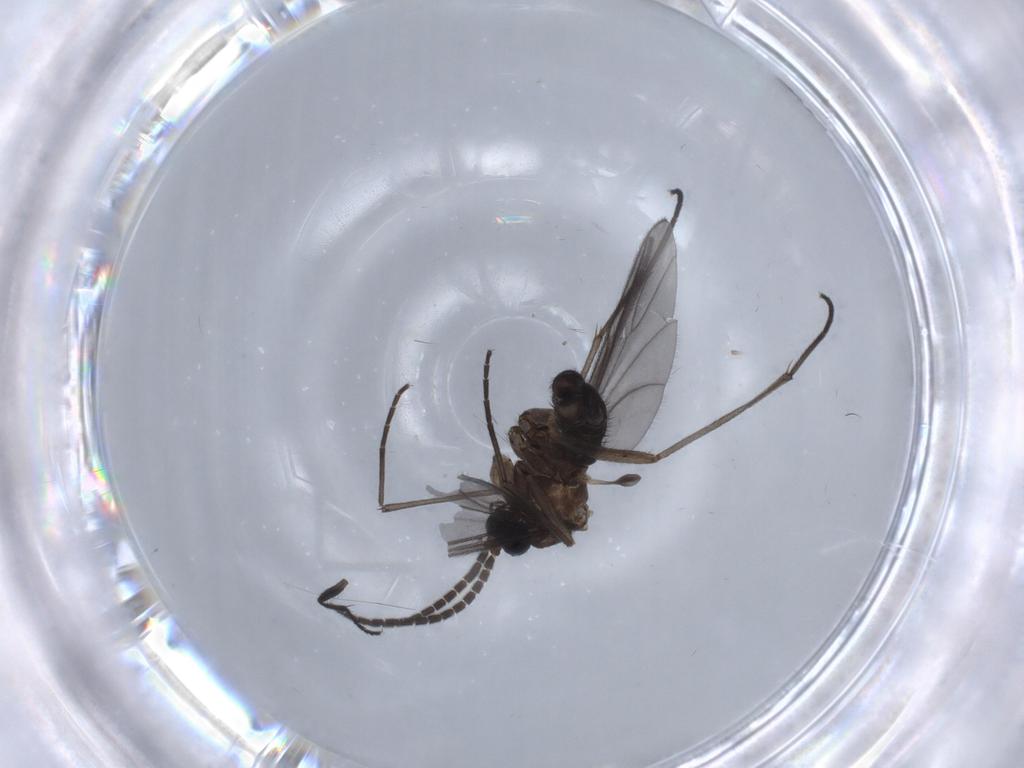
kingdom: Animalia
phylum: Arthropoda
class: Insecta
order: Diptera
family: Sciaridae
